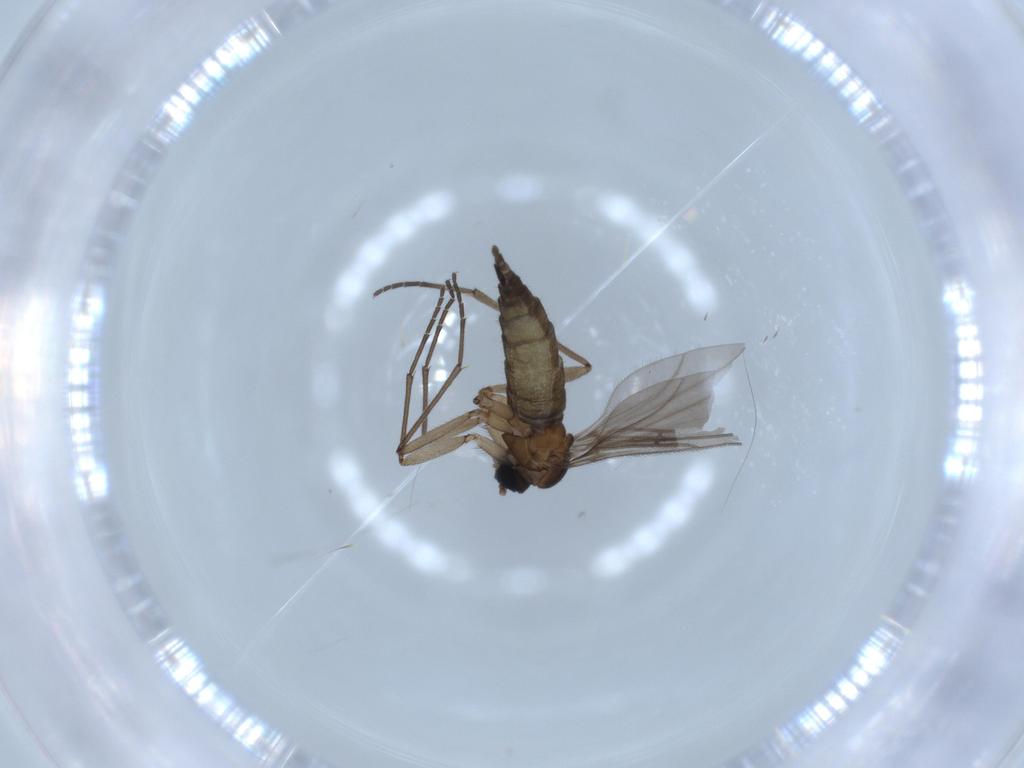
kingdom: Animalia
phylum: Arthropoda
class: Insecta
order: Diptera
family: Sciaridae
